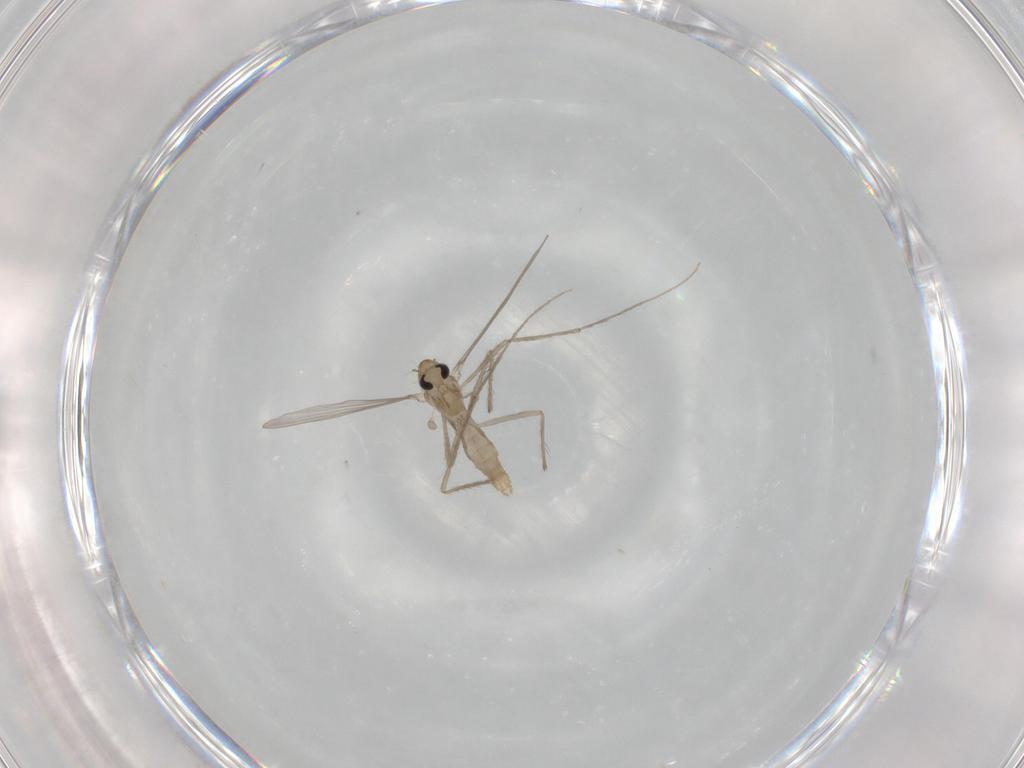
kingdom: Animalia
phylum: Arthropoda
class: Insecta
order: Diptera
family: Chironomidae
